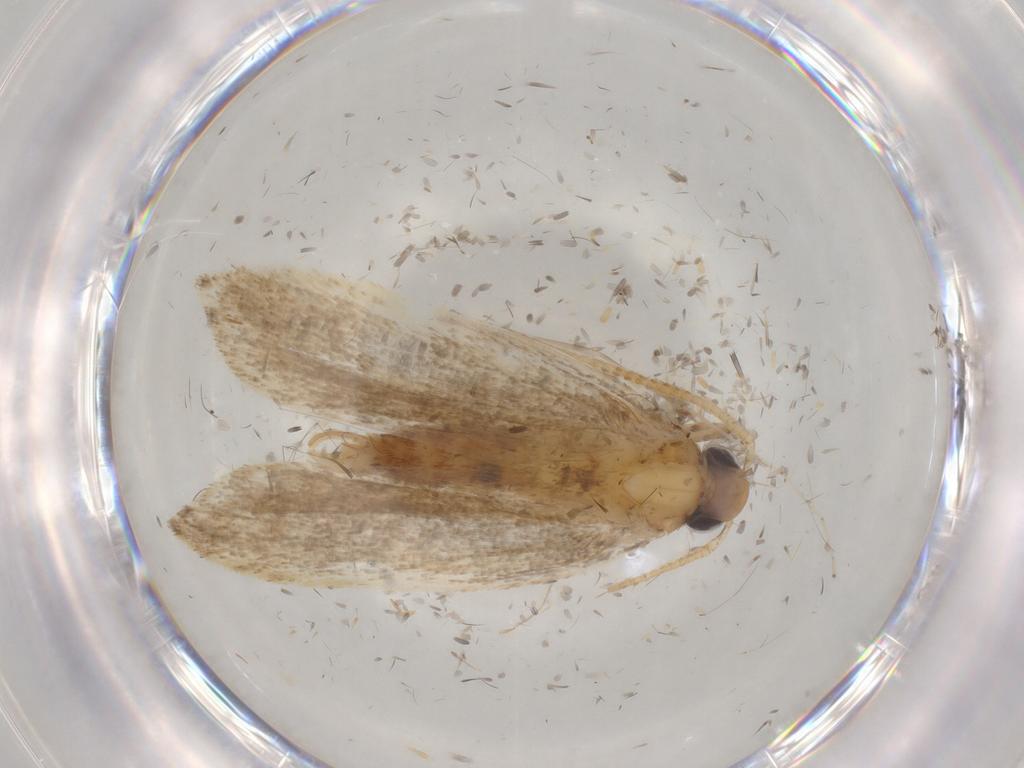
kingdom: Animalia
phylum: Arthropoda
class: Insecta
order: Lepidoptera
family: Autostichidae
